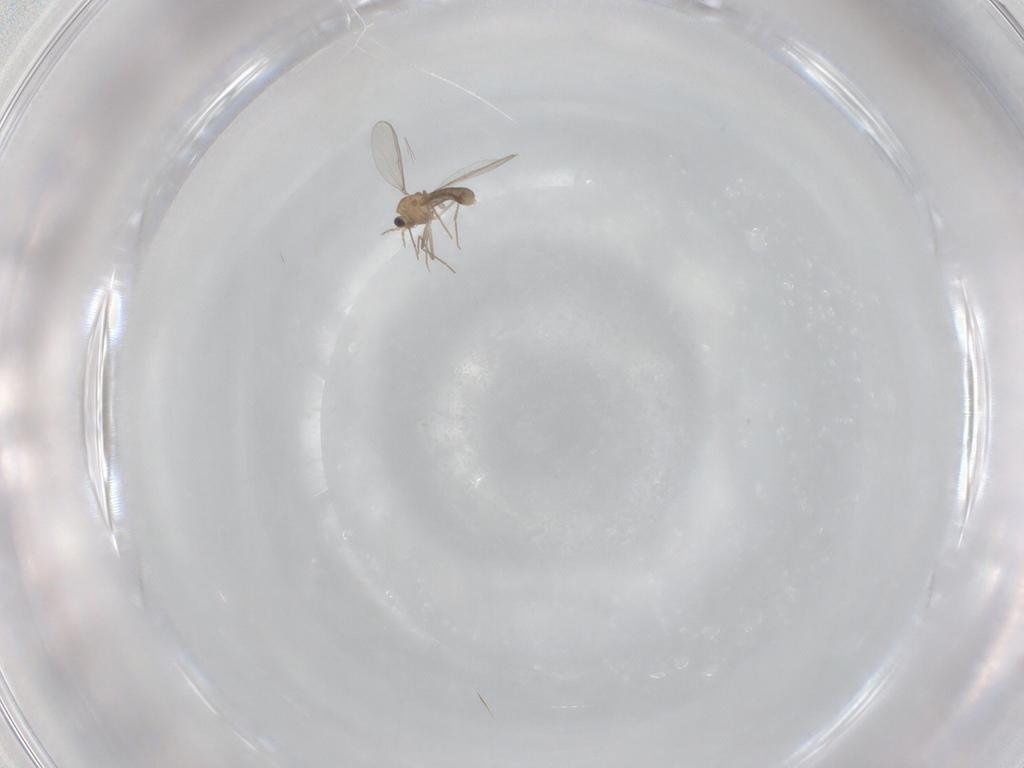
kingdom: Animalia
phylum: Arthropoda
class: Insecta
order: Diptera
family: Chironomidae
